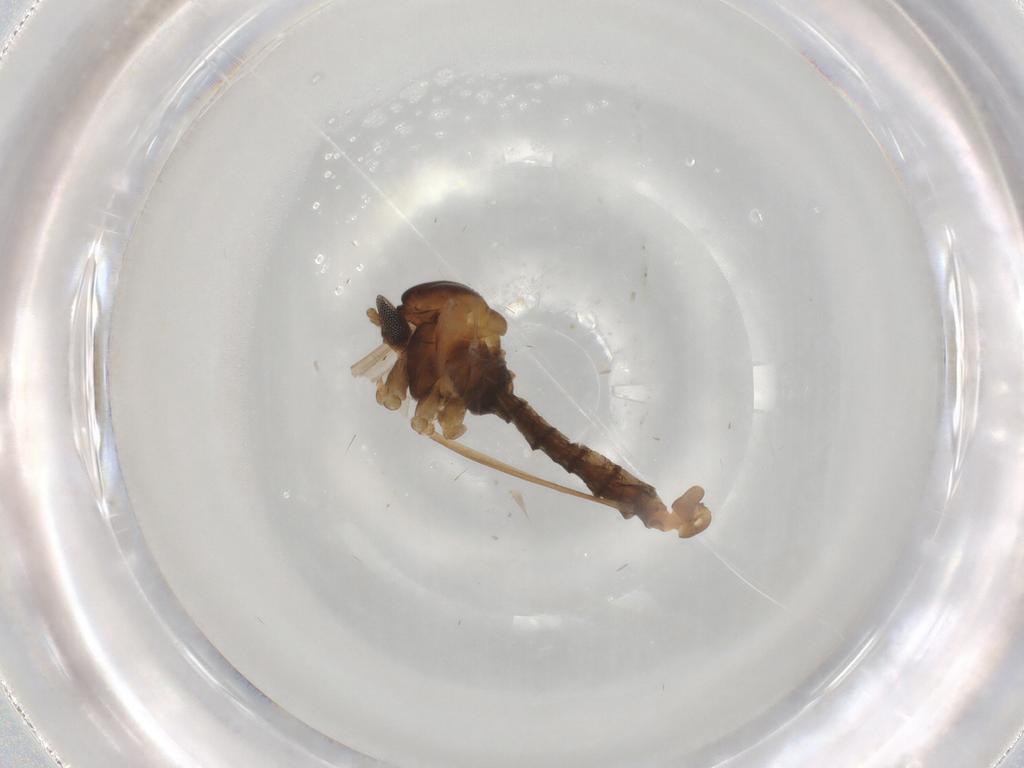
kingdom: Animalia
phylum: Arthropoda
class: Insecta
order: Diptera
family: Cecidomyiidae
